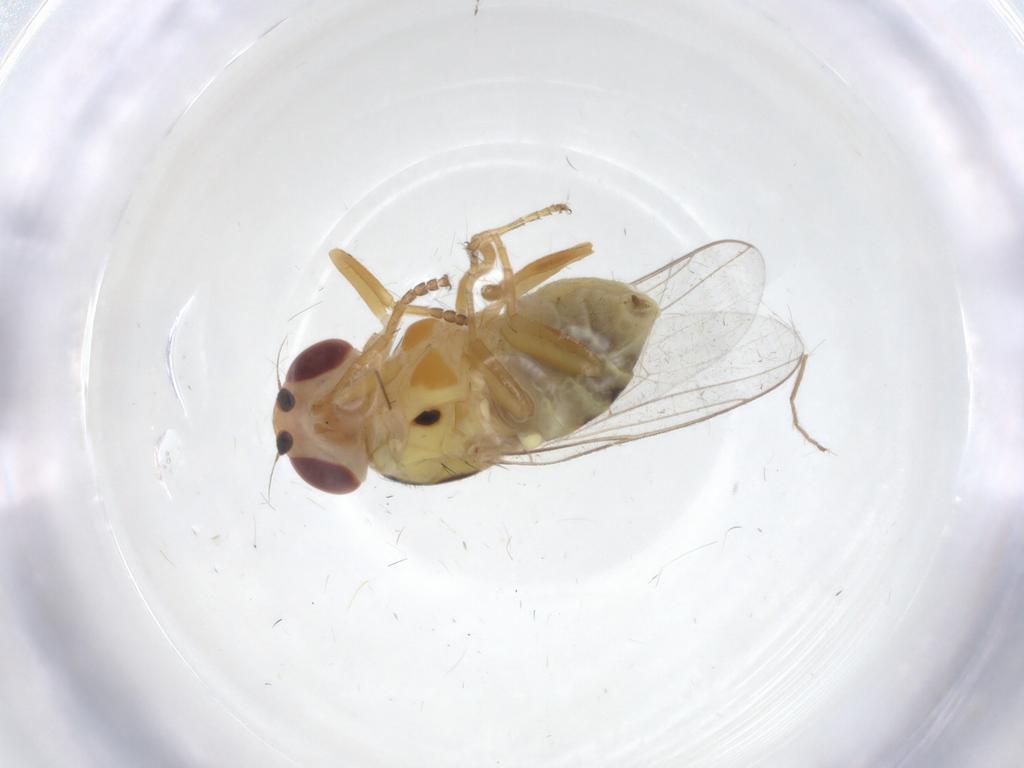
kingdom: Animalia
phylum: Arthropoda
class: Insecta
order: Diptera
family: Chloropidae
